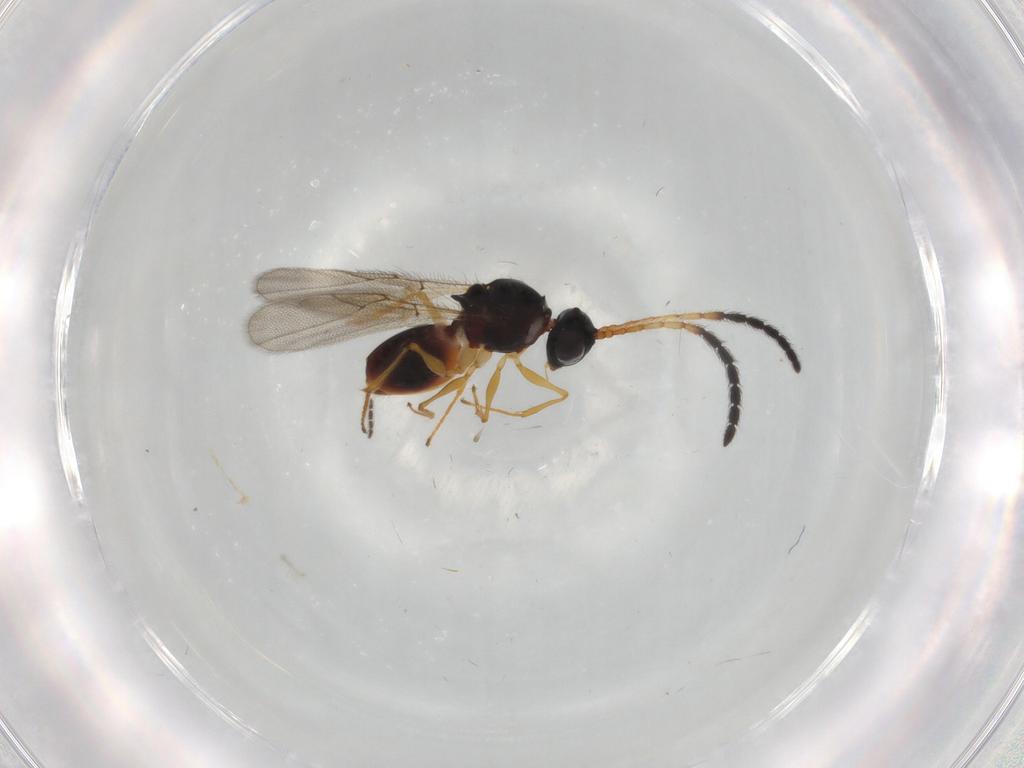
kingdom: Animalia
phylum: Arthropoda
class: Insecta
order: Hymenoptera
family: Figitidae
